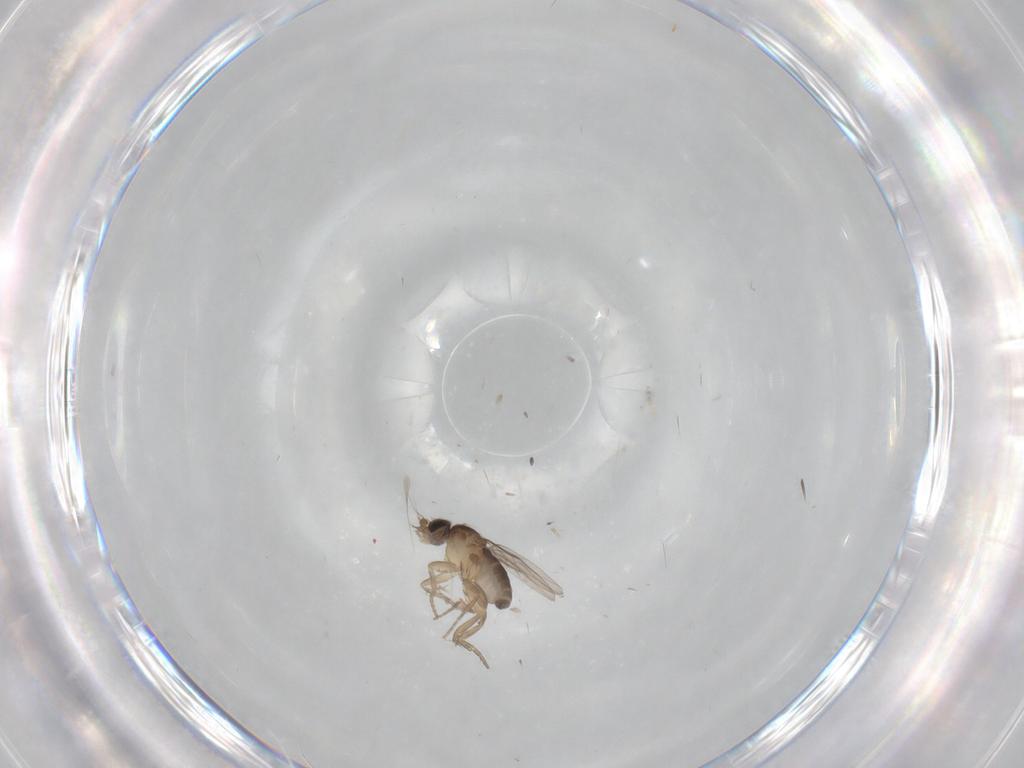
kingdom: Animalia
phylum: Arthropoda
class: Insecta
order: Diptera
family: Phoridae
